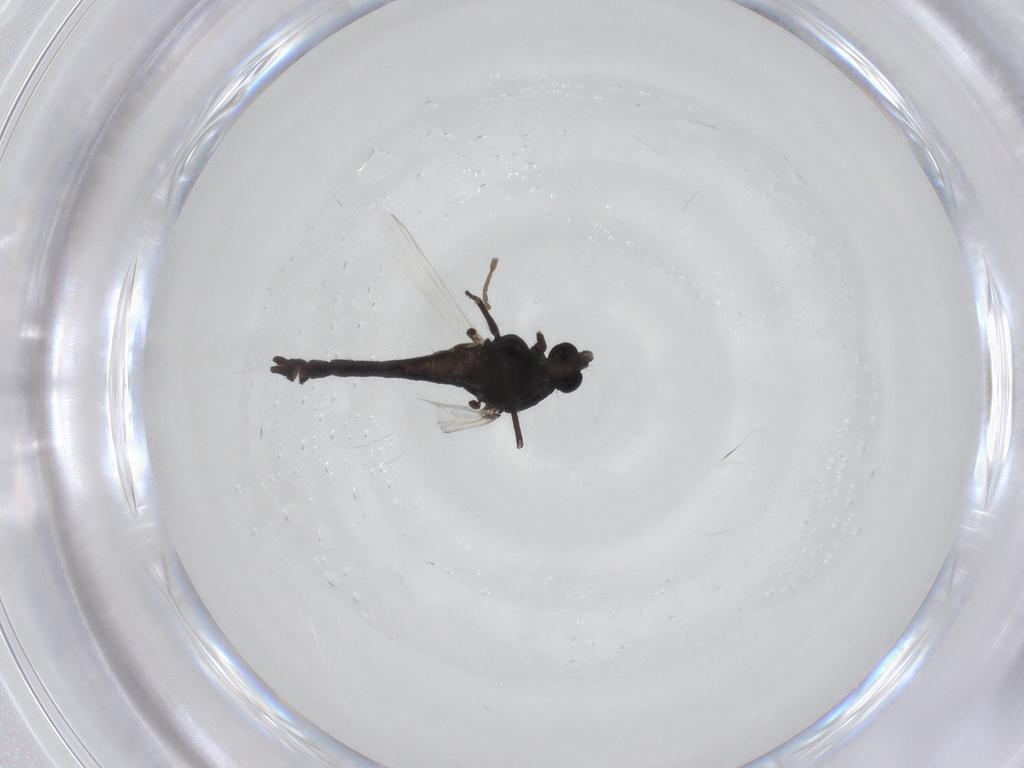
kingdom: Animalia
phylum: Arthropoda
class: Insecta
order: Diptera
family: Chironomidae
